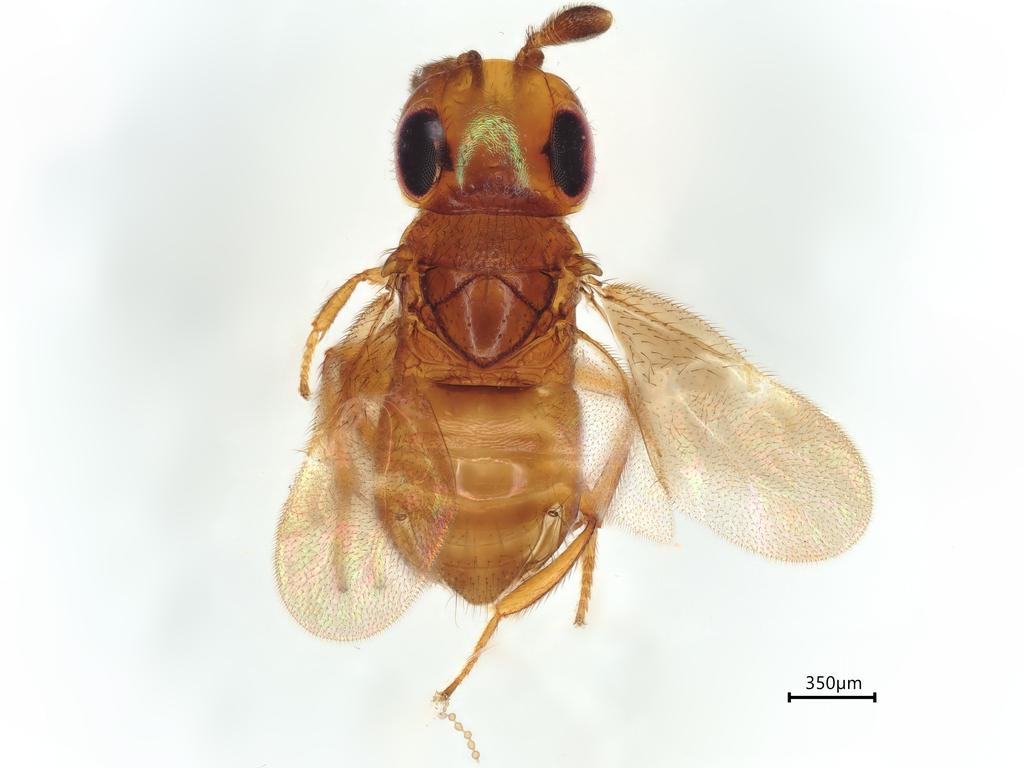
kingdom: Animalia
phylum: Arthropoda
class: Insecta
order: Hymenoptera
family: Encyrtidae
